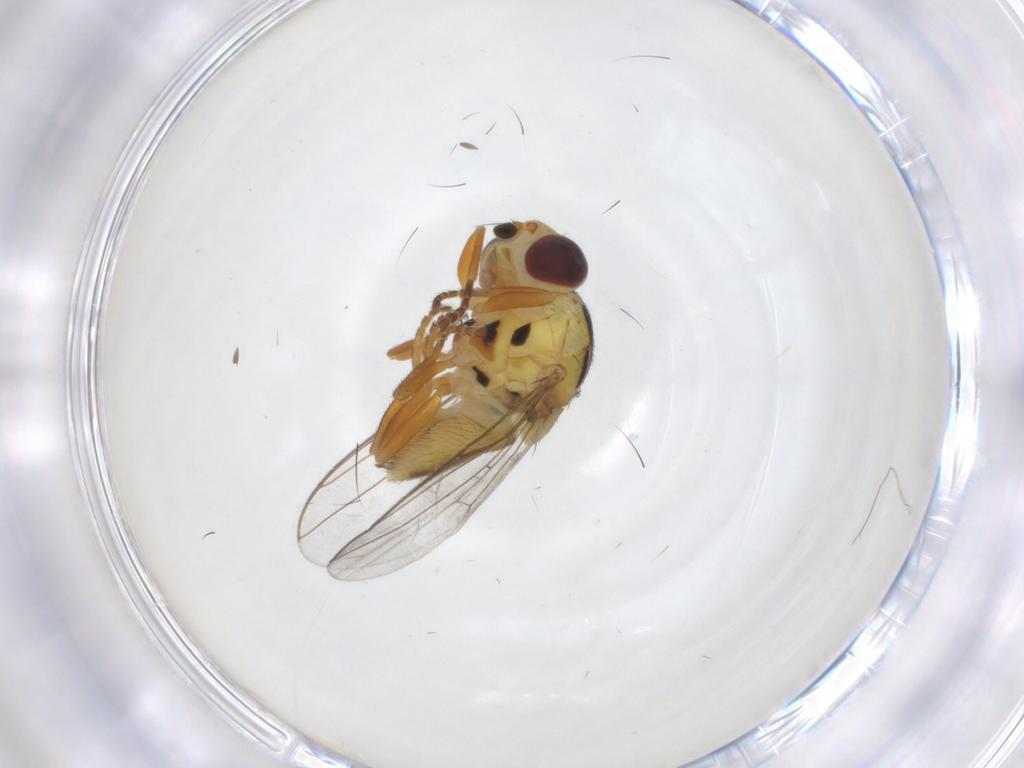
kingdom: Animalia
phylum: Arthropoda
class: Insecta
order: Diptera
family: Chloropidae
